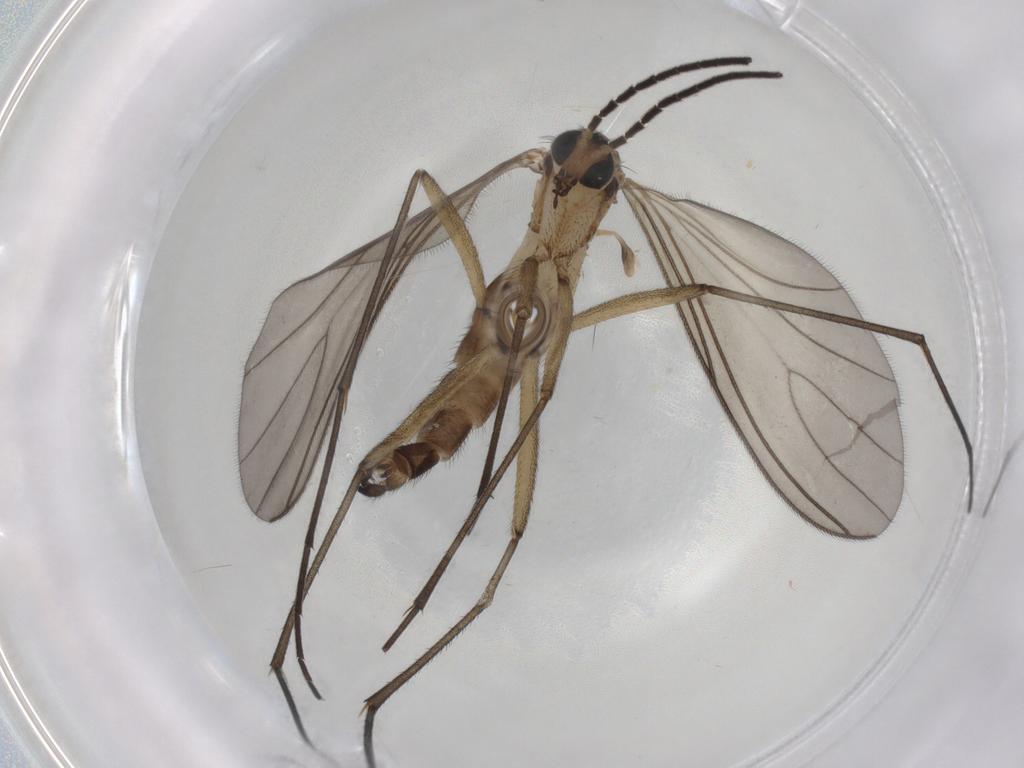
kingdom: Animalia
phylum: Arthropoda
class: Insecta
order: Diptera
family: Sciaridae
